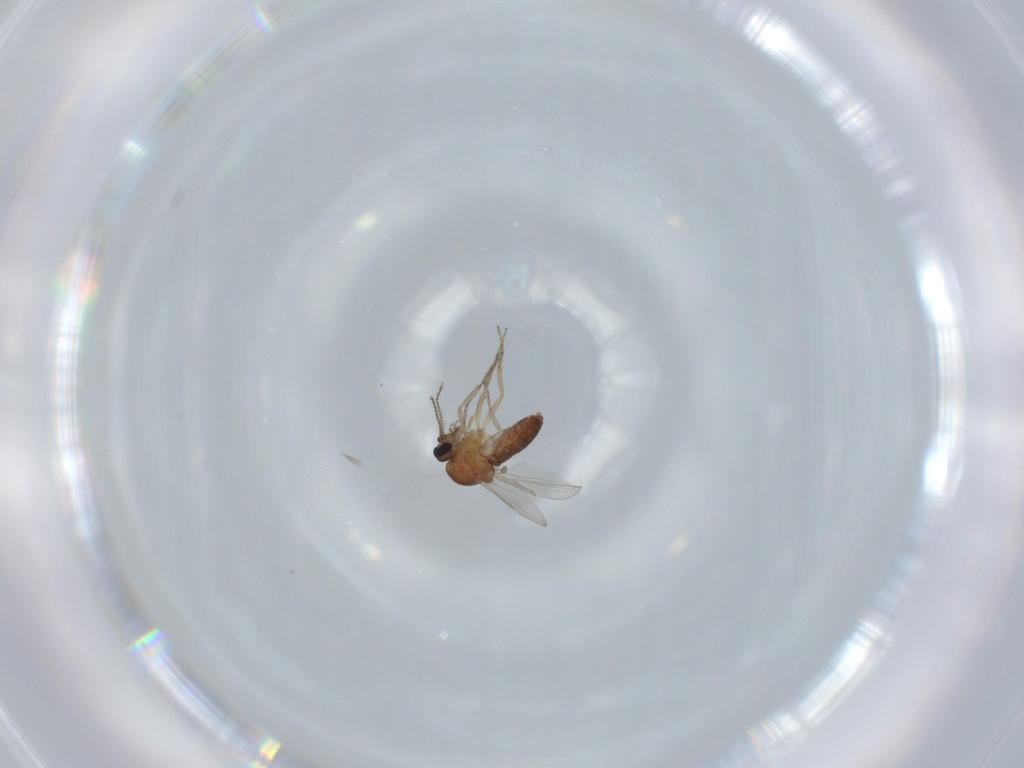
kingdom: Animalia
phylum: Arthropoda
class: Insecta
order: Diptera
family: Ceratopogonidae
